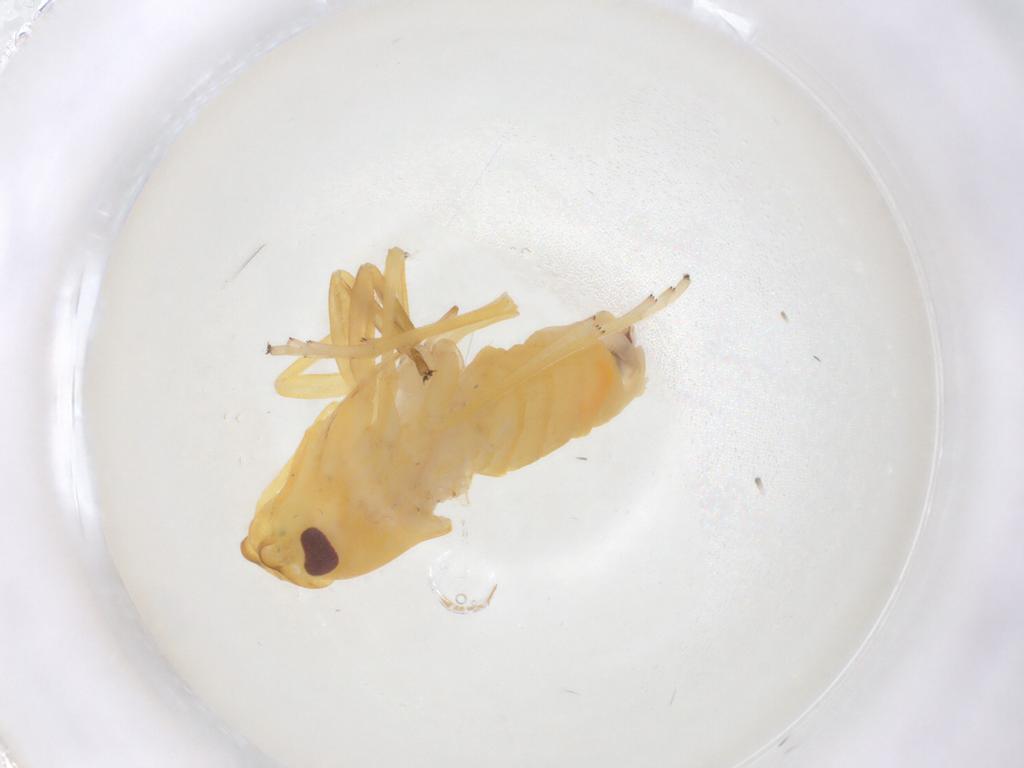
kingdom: Animalia
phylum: Arthropoda
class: Insecta
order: Hemiptera
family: Cixiidae
